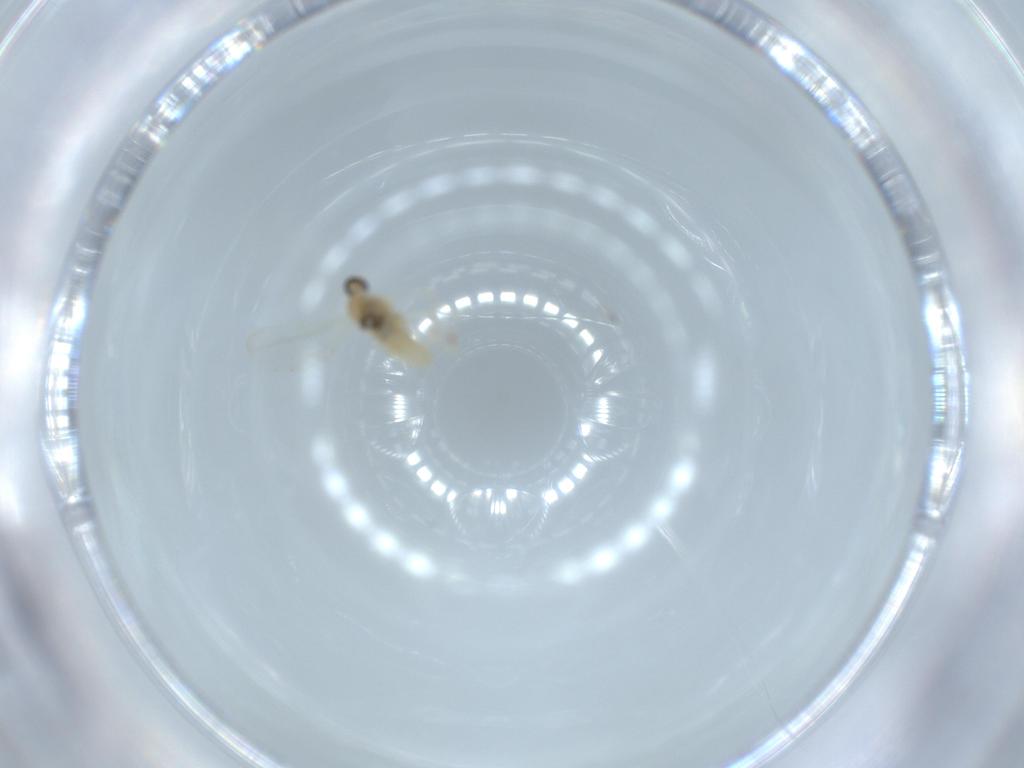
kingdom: Animalia
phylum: Arthropoda
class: Insecta
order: Diptera
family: Cecidomyiidae
